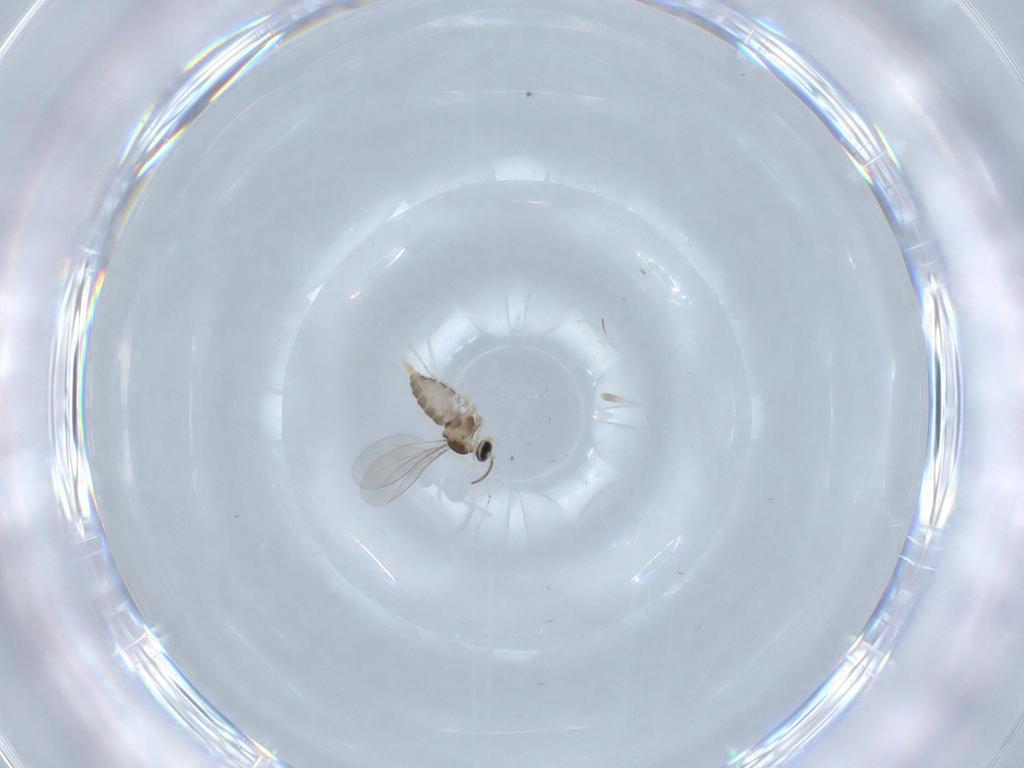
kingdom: Animalia
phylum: Arthropoda
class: Insecta
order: Diptera
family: Cecidomyiidae
